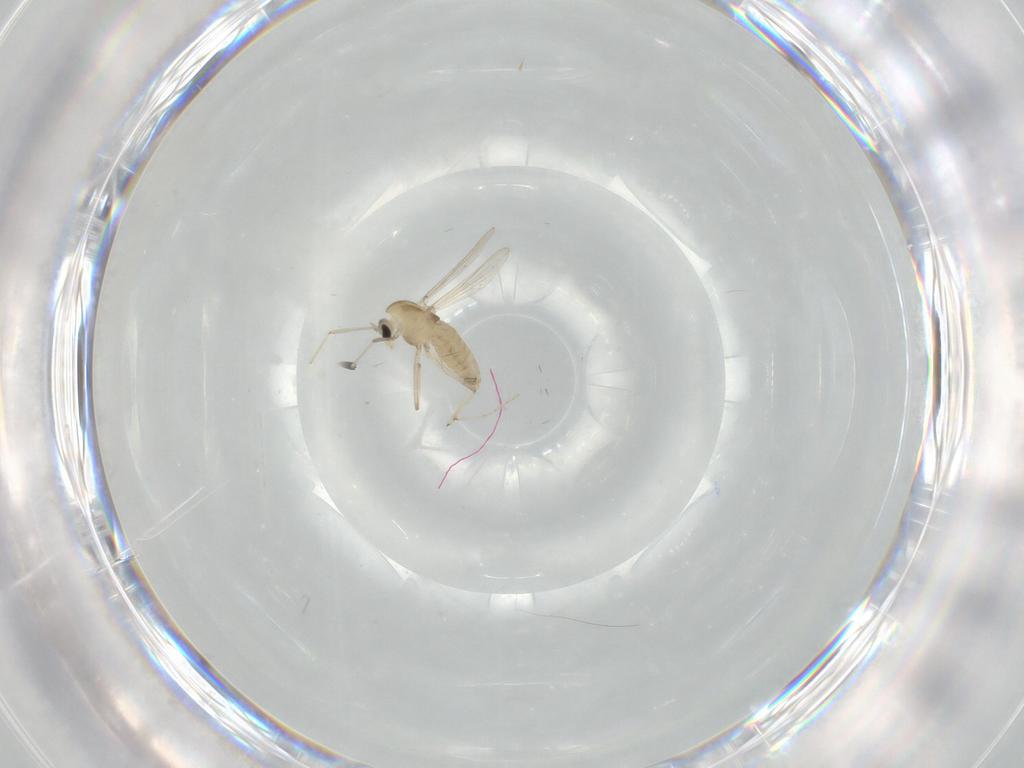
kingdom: Animalia
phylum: Arthropoda
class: Insecta
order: Diptera
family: Chironomidae
